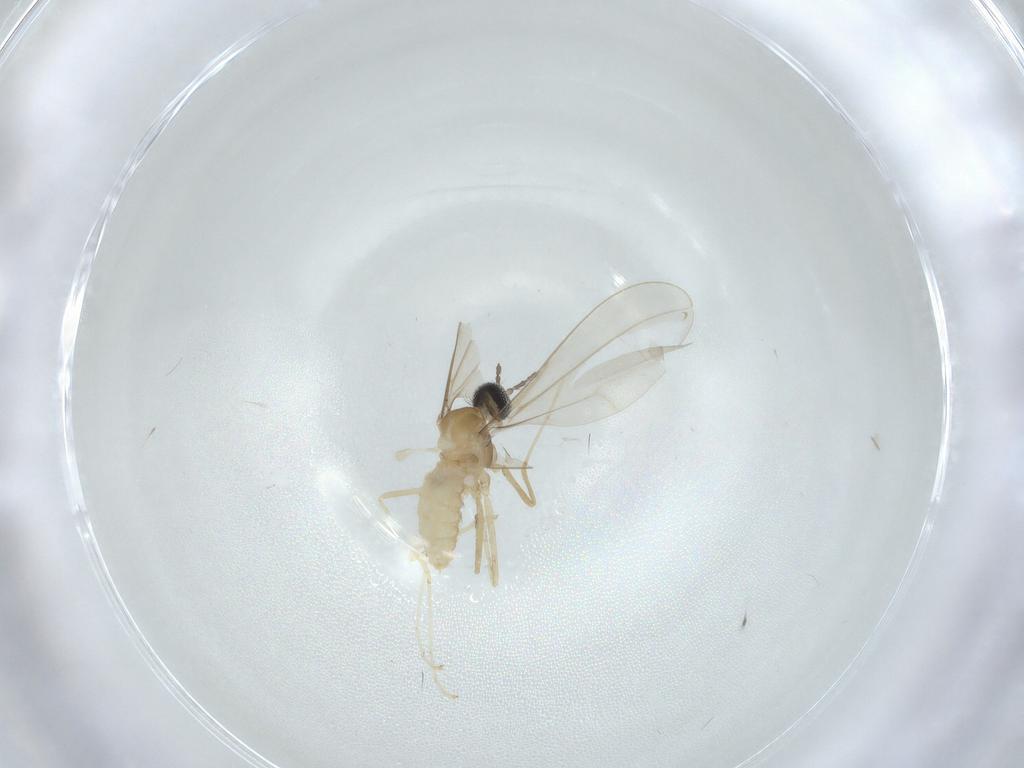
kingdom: Animalia
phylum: Arthropoda
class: Insecta
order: Diptera
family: Cecidomyiidae
